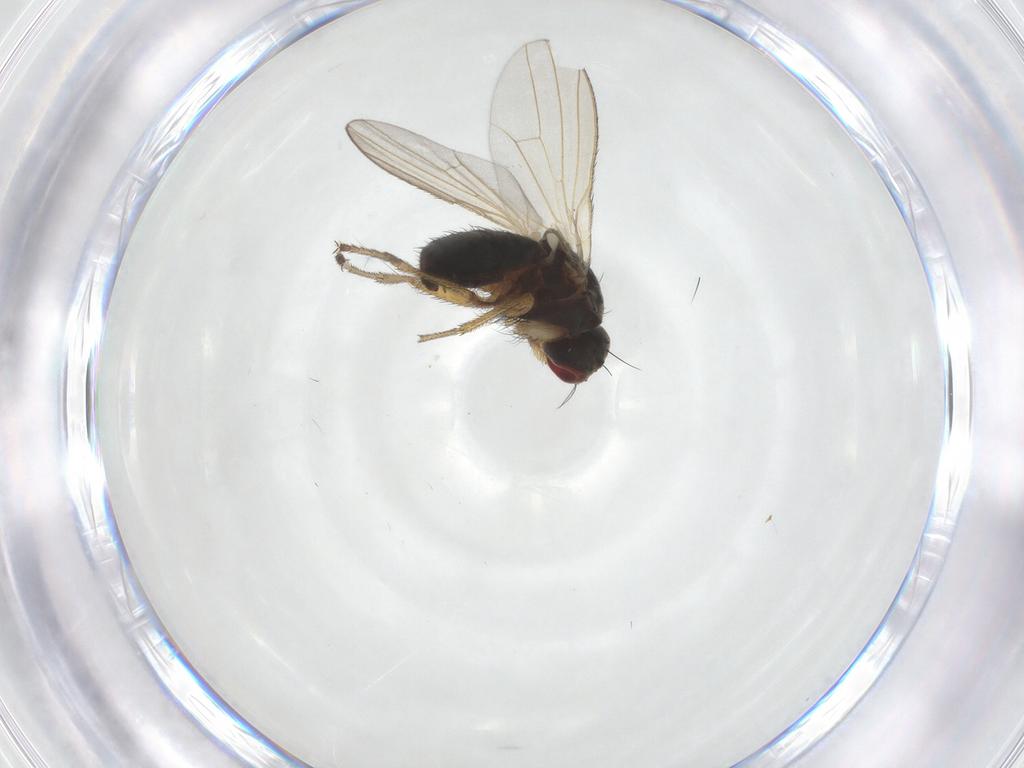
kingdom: Animalia
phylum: Arthropoda
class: Insecta
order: Diptera
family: Heleomyzidae
